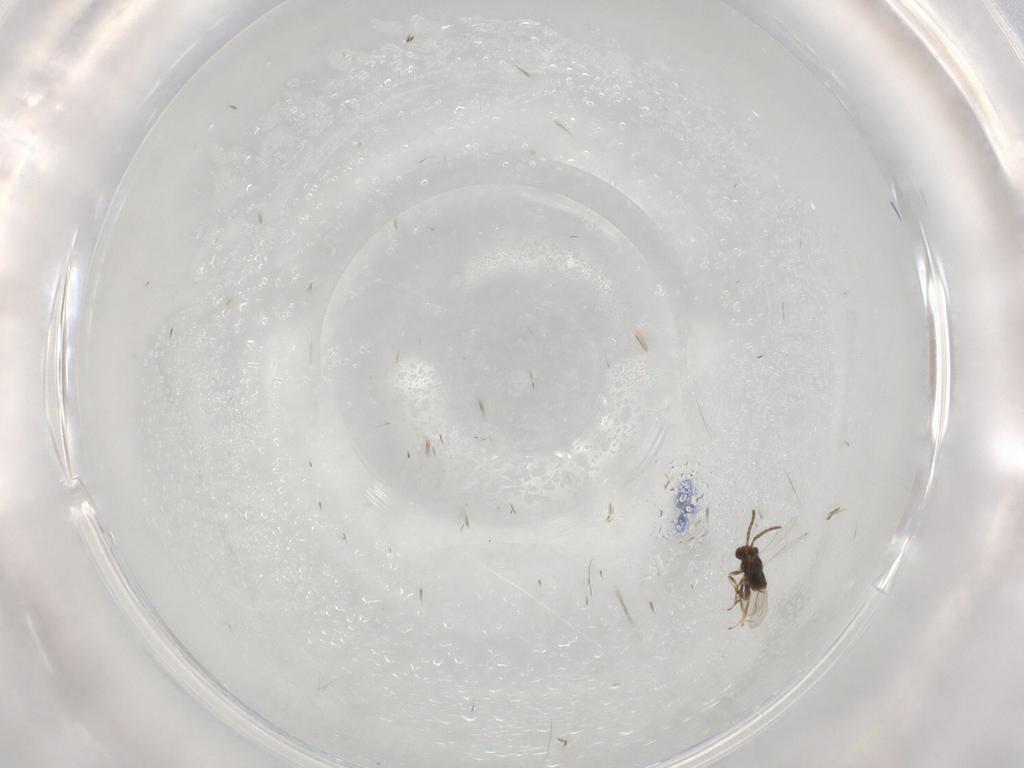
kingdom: Animalia
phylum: Arthropoda
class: Insecta
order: Hymenoptera
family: Aphelinidae
